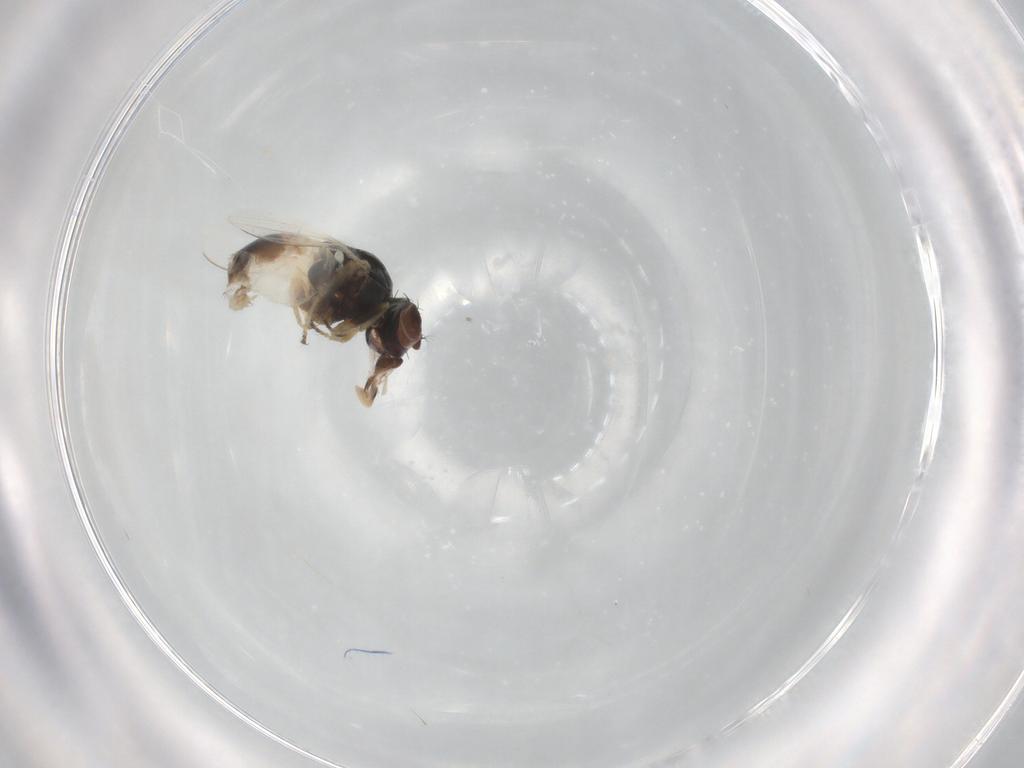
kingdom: Animalia
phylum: Arthropoda
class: Insecta
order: Diptera
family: Ephydridae
